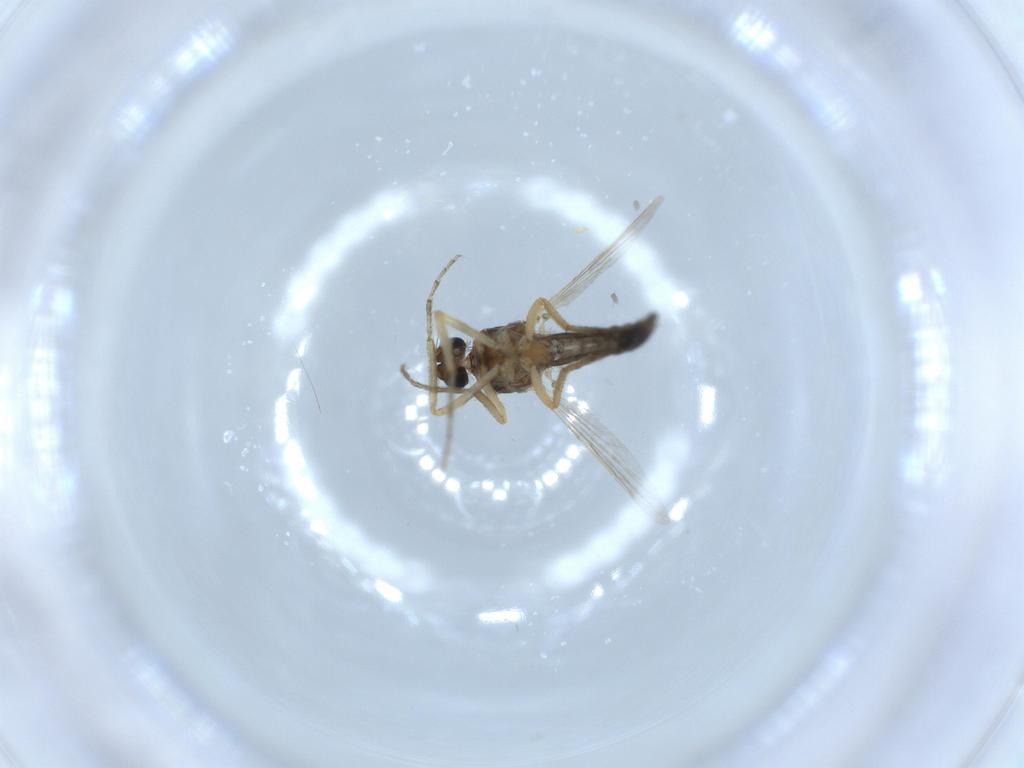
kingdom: Animalia
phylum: Arthropoda
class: Insecta
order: Diptera
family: Ceratopogonidae
